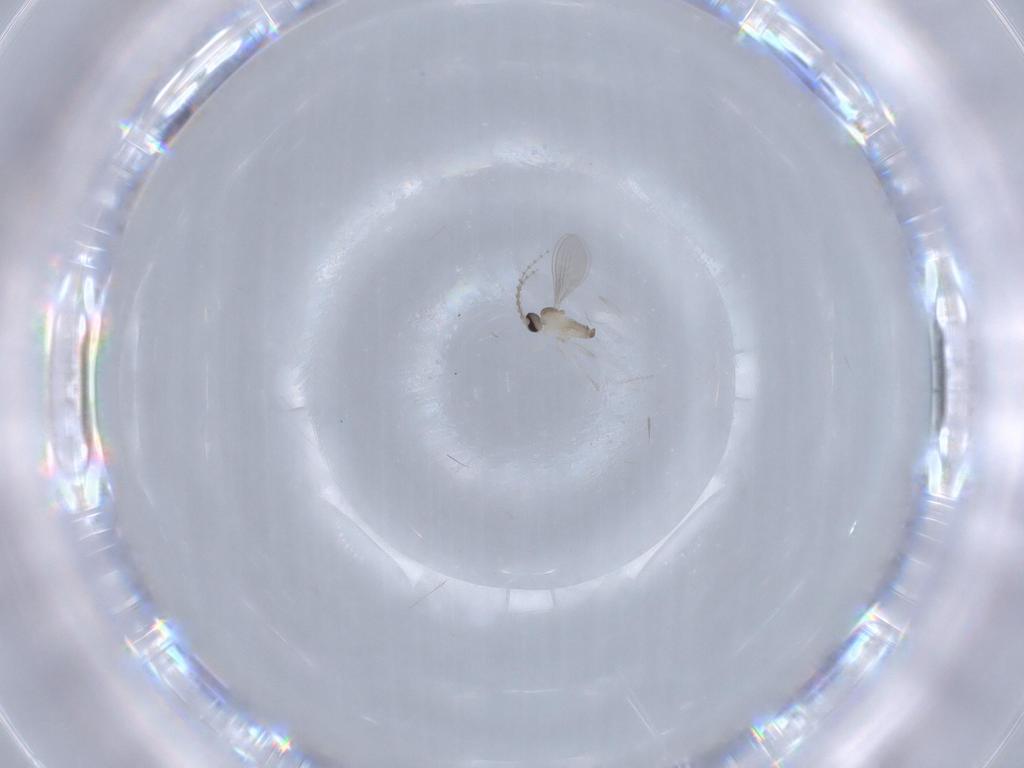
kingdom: Animalia
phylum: Arthropoda
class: Insecta
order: Diptera
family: Cecidomyiidae
